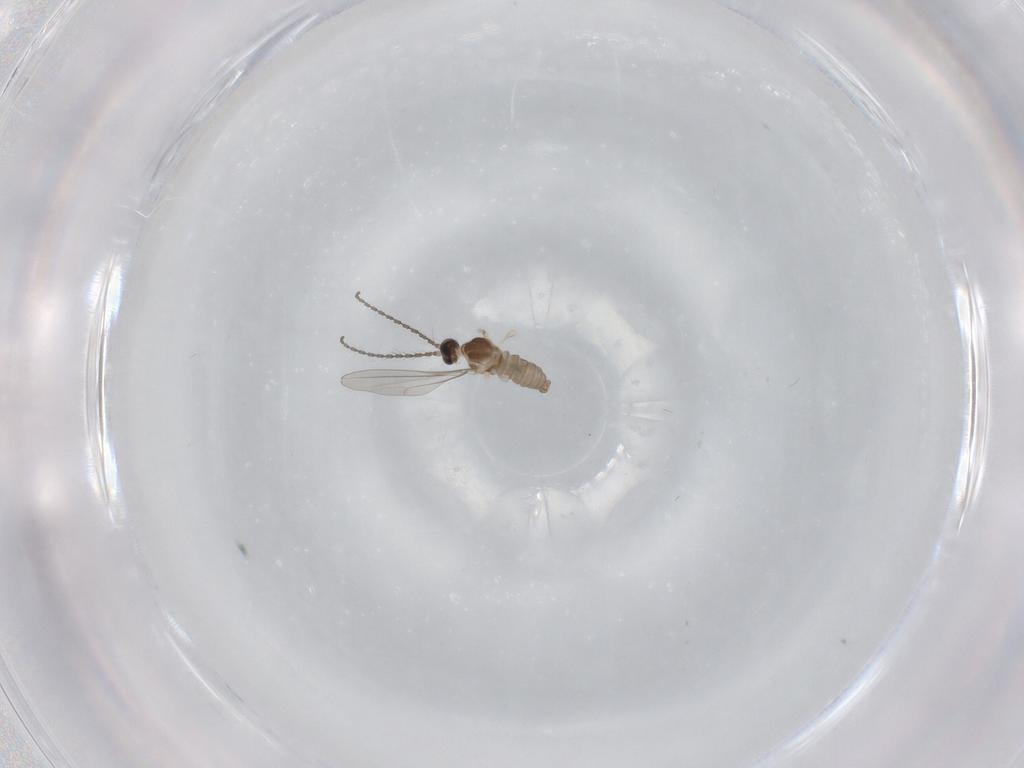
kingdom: Animalia
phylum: Arthropoda
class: Insecta
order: Diptera
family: Cecidomyiidae
